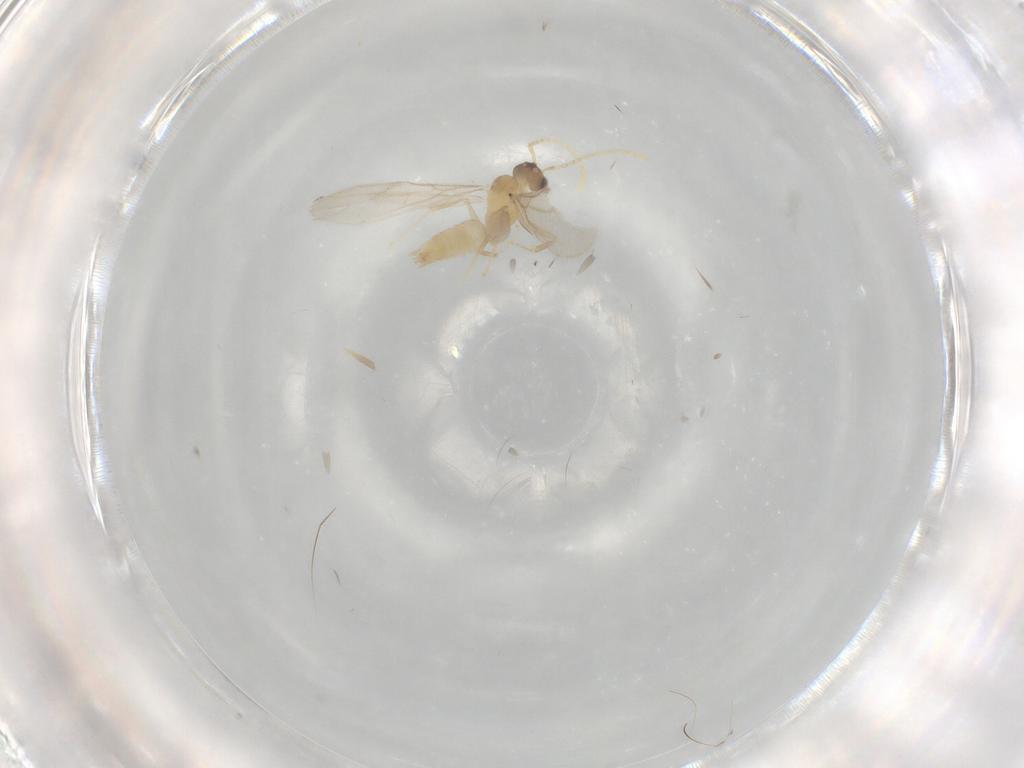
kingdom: Animalia
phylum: Arthropoda
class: Insecta
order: Hymenoptera
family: Formicidae
